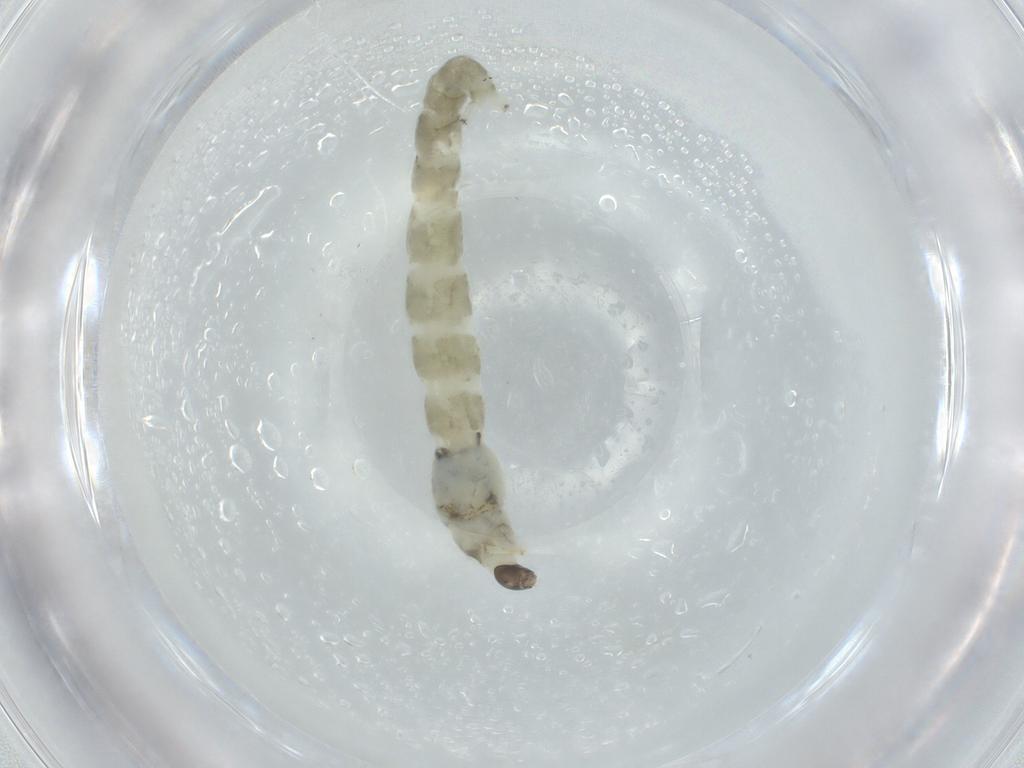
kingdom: Animalia
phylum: Arthropoda
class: Insecta
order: Diptera
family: Chironomidae
